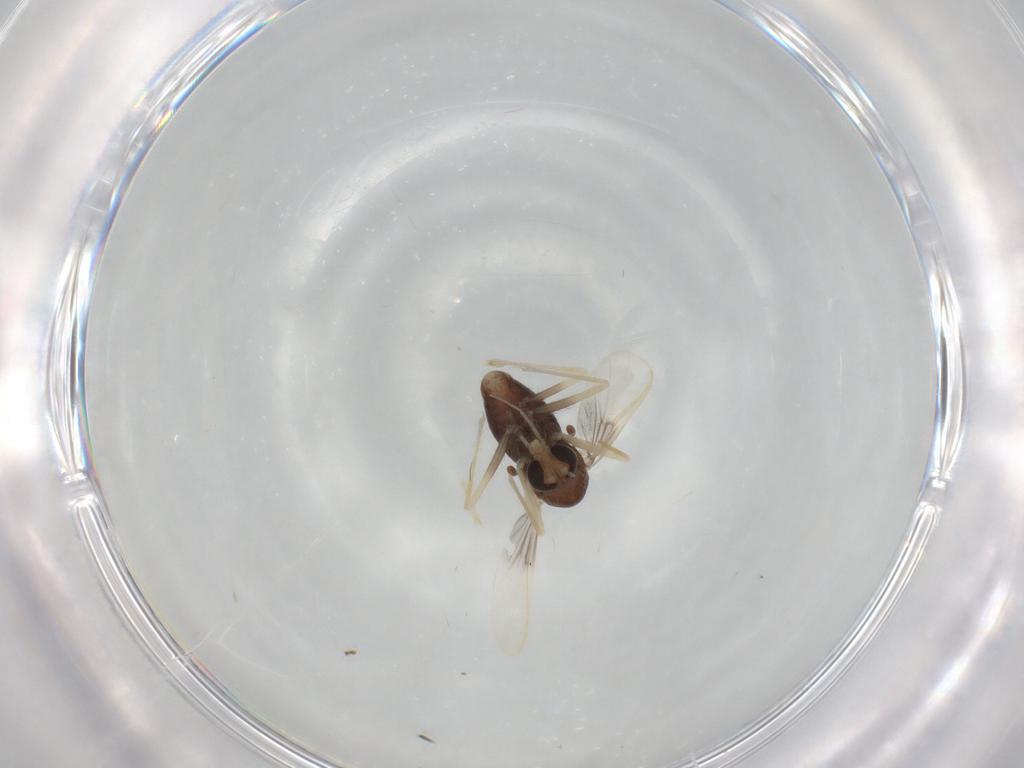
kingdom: Animalia
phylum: Arthropoda
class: Insecta
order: Diptera
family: Chironomidae
